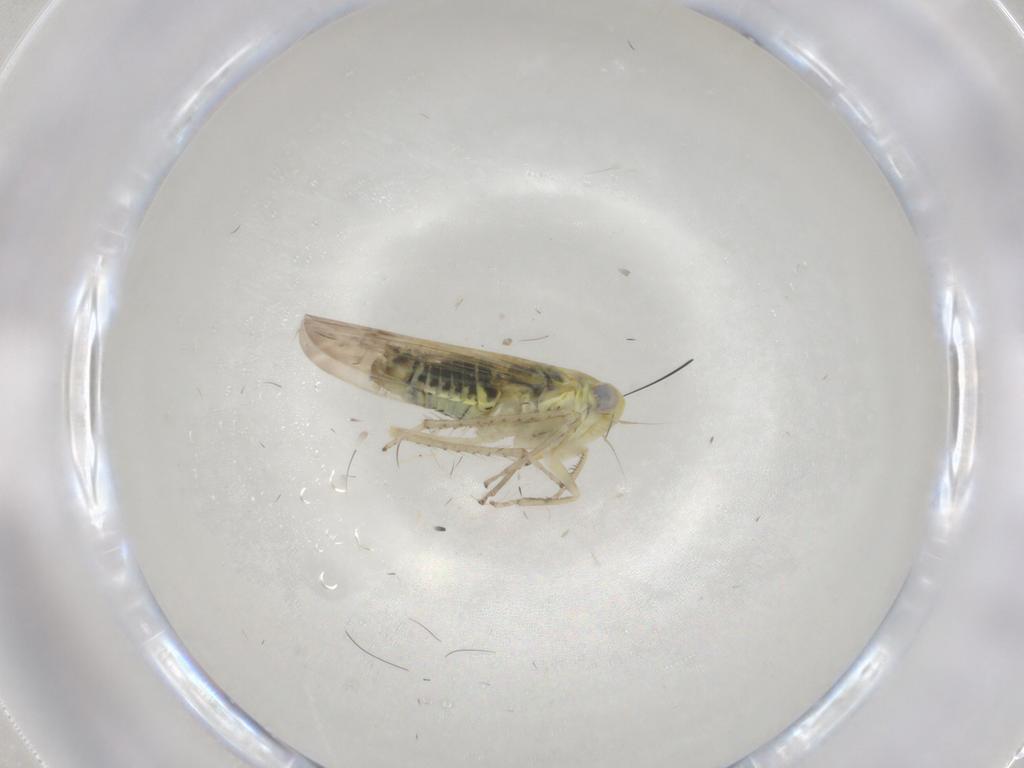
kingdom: Animalia
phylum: Arthropoda
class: Insecta
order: Hemiptera
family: Cicadellidae
